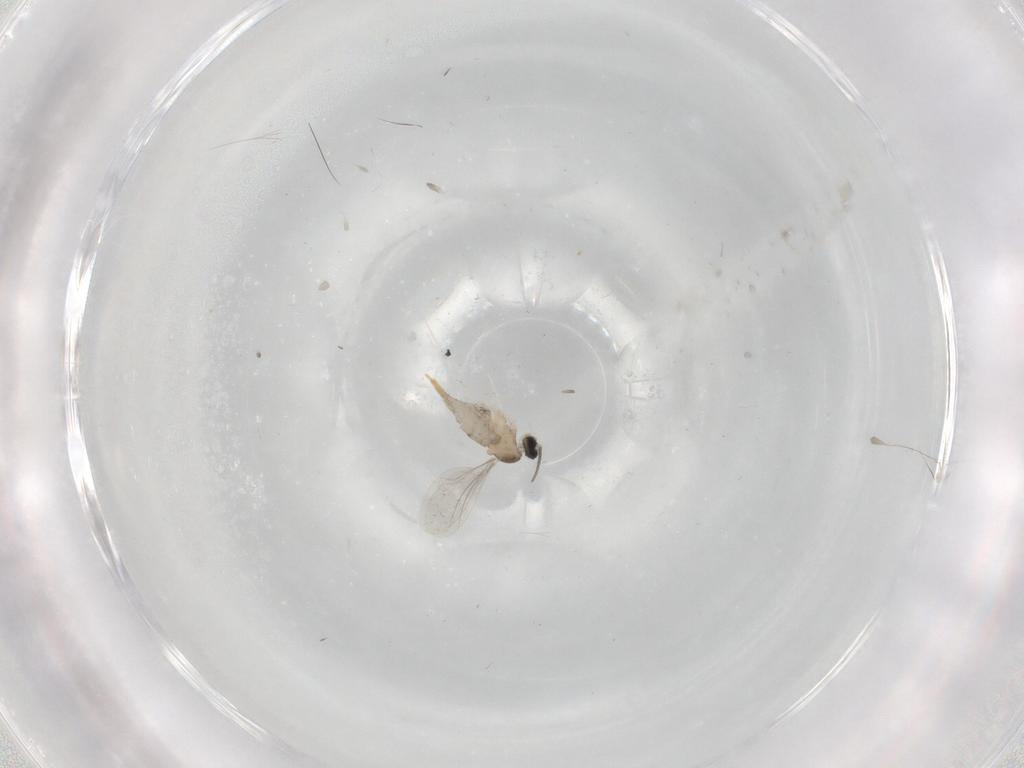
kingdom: Animalia
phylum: Arthropoda
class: Insecta
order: Diptera
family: Cecidomyiidae
